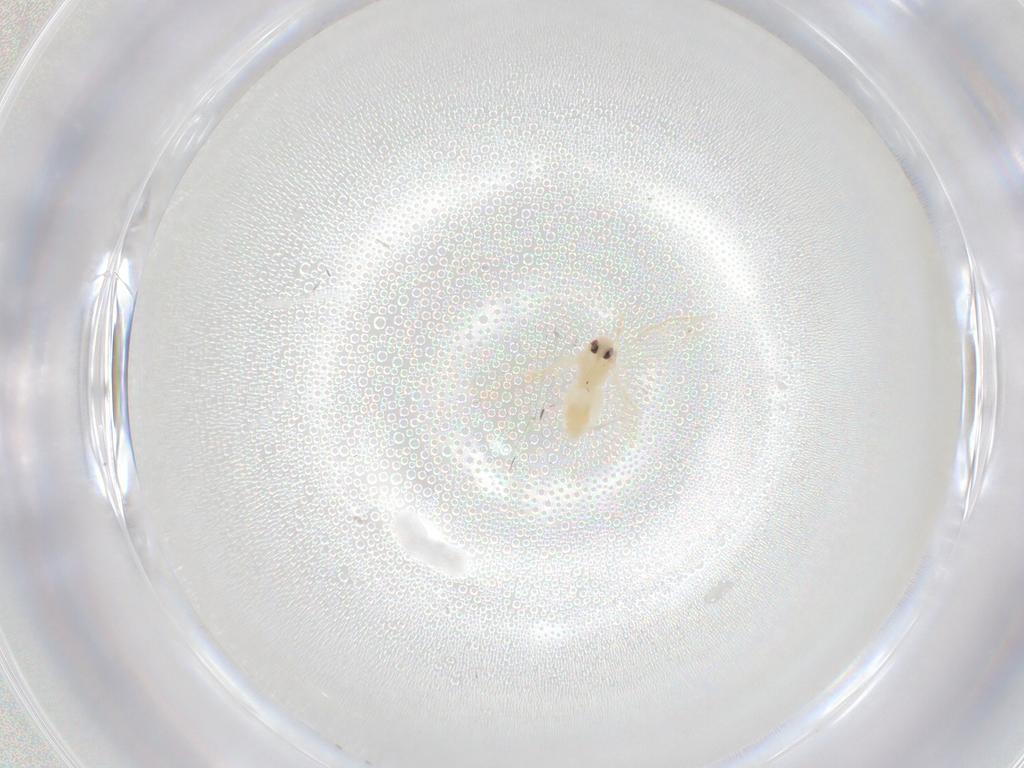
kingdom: Animalia
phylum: Arthropoda
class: Insecta
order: Hemiptera
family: Aleyrodidae
